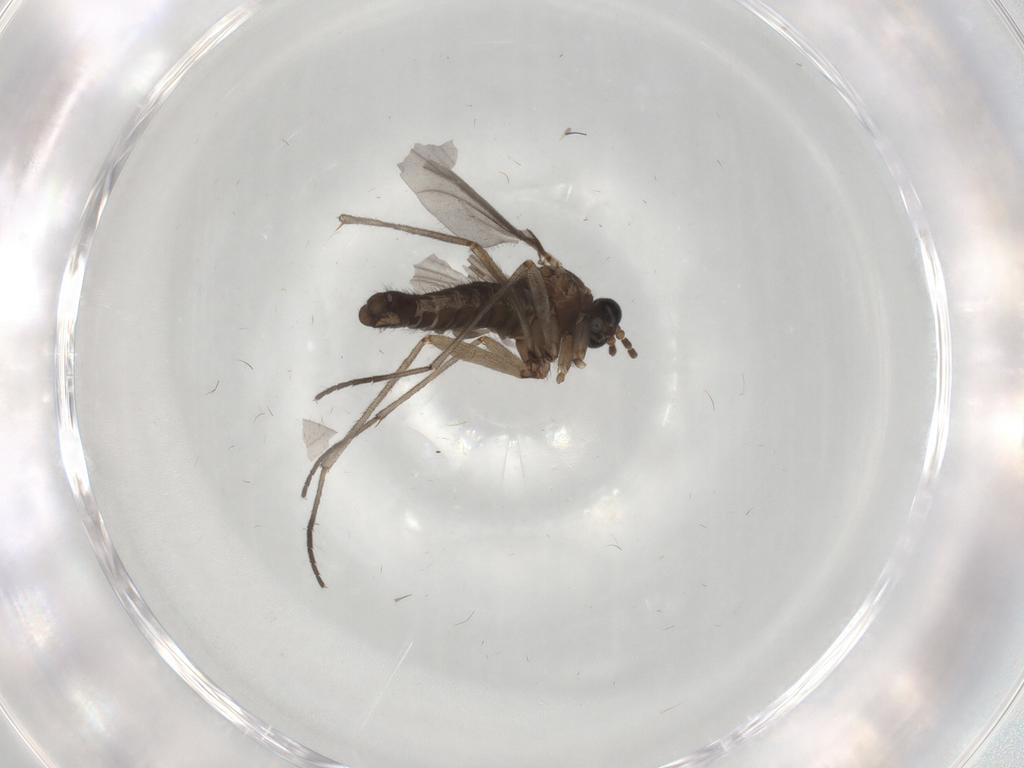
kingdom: Animalia
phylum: Arthropoda
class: Insecta
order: Diptera
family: Sciaridae
